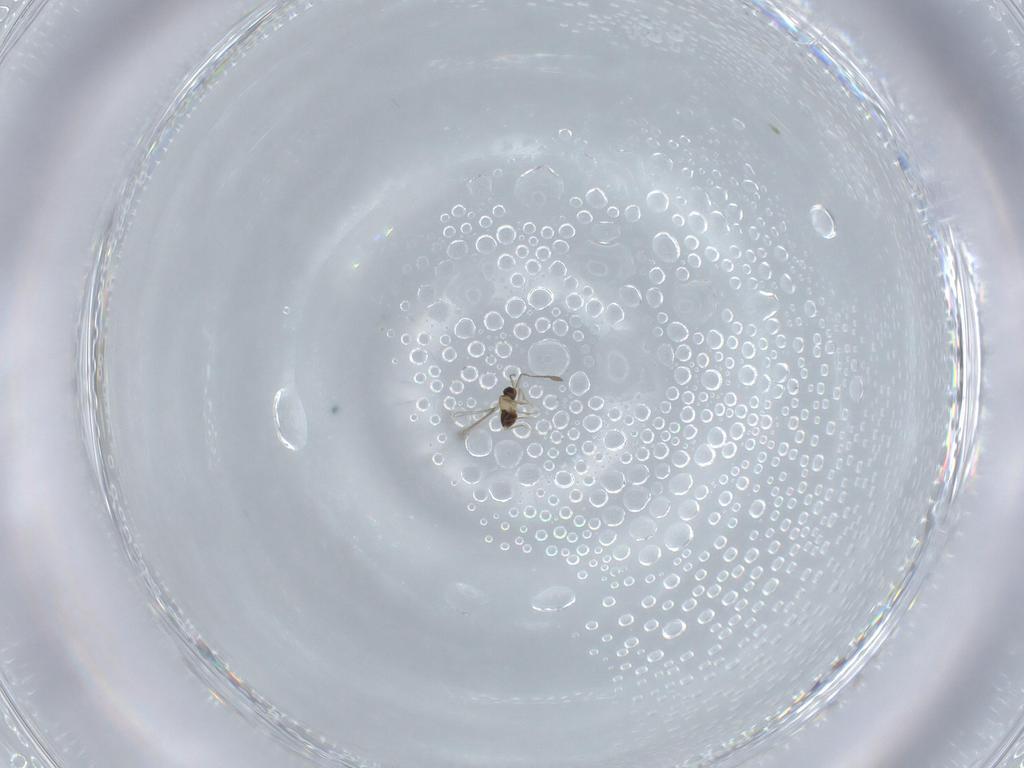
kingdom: Animalia
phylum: Arthropoda
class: Insecta
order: Hymenoptera
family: Mymaridae
